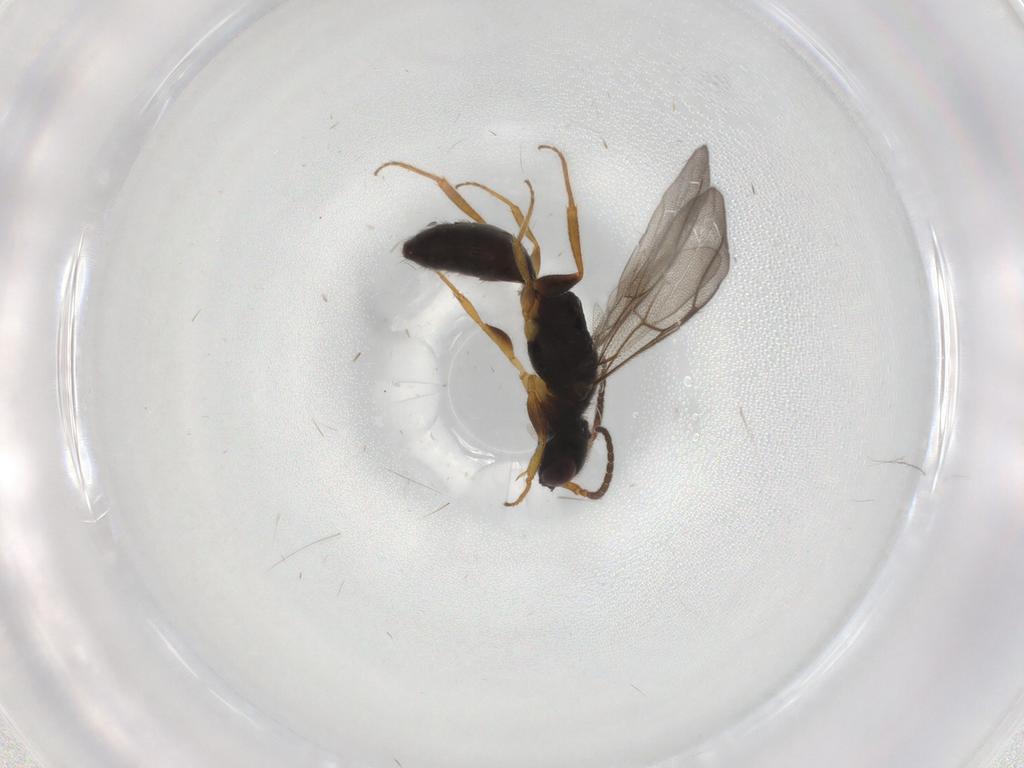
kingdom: Animalia
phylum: Arthropoda
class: Insecta
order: Hymenoptera
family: Bethylidae
